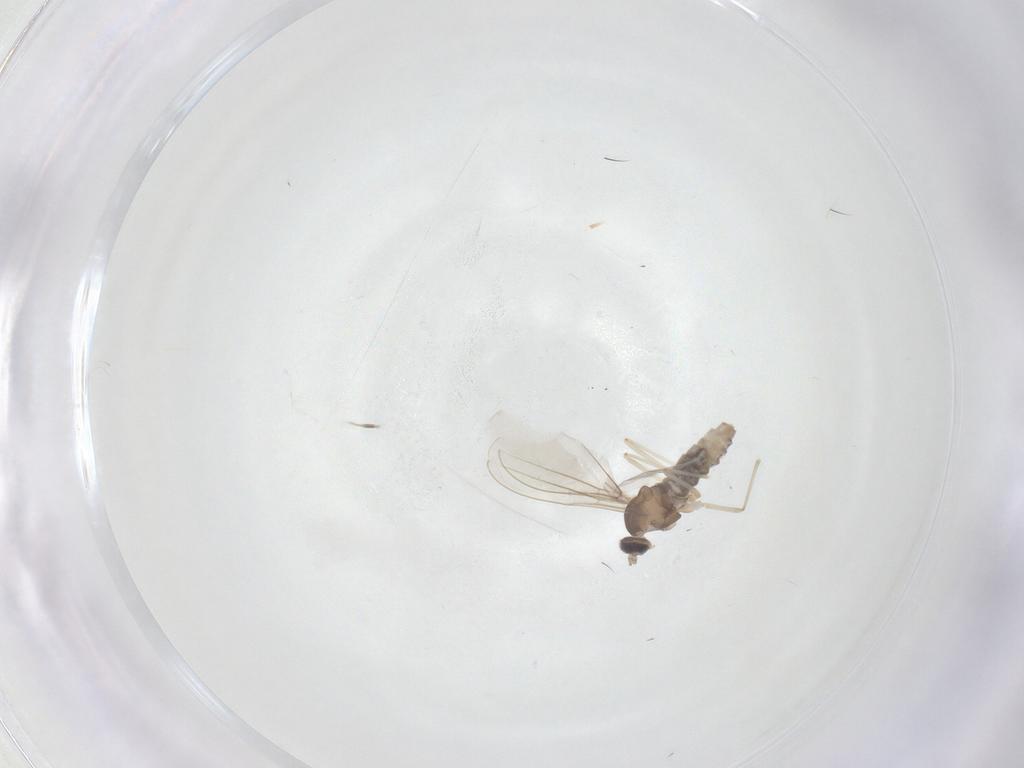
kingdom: Animalia
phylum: Arthropoda
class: Insecta
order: Diptera
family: Cecidomyiidae
